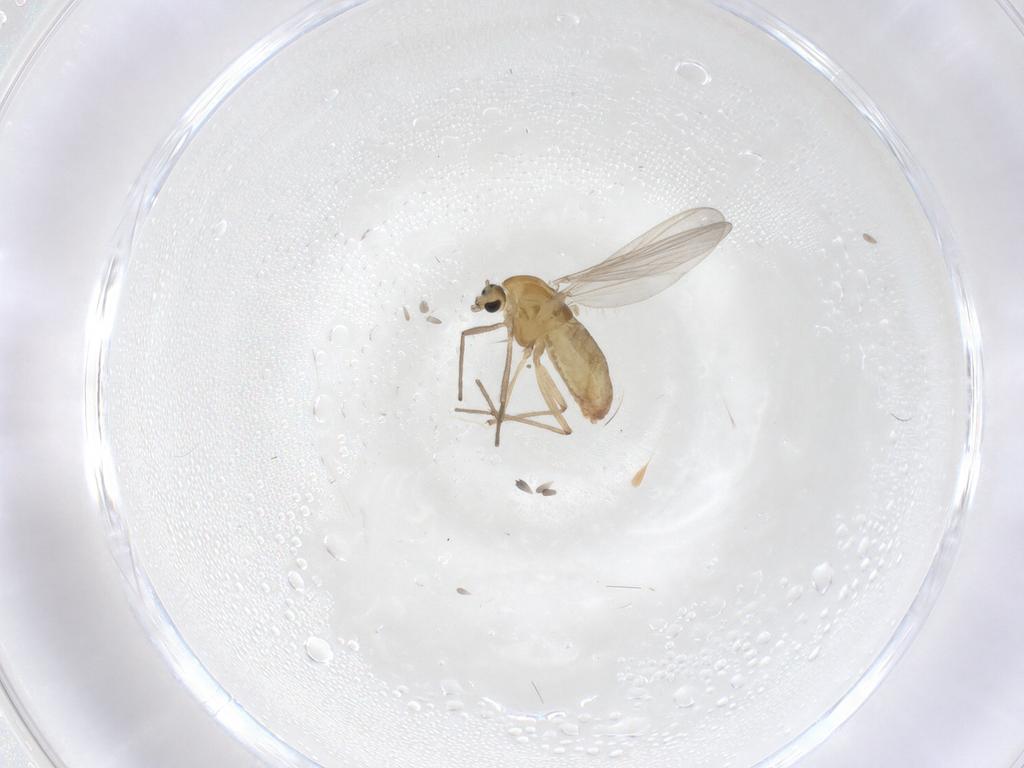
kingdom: Animalia
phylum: Arthropoda
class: Insecta
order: Diptera
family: Chironomidae
